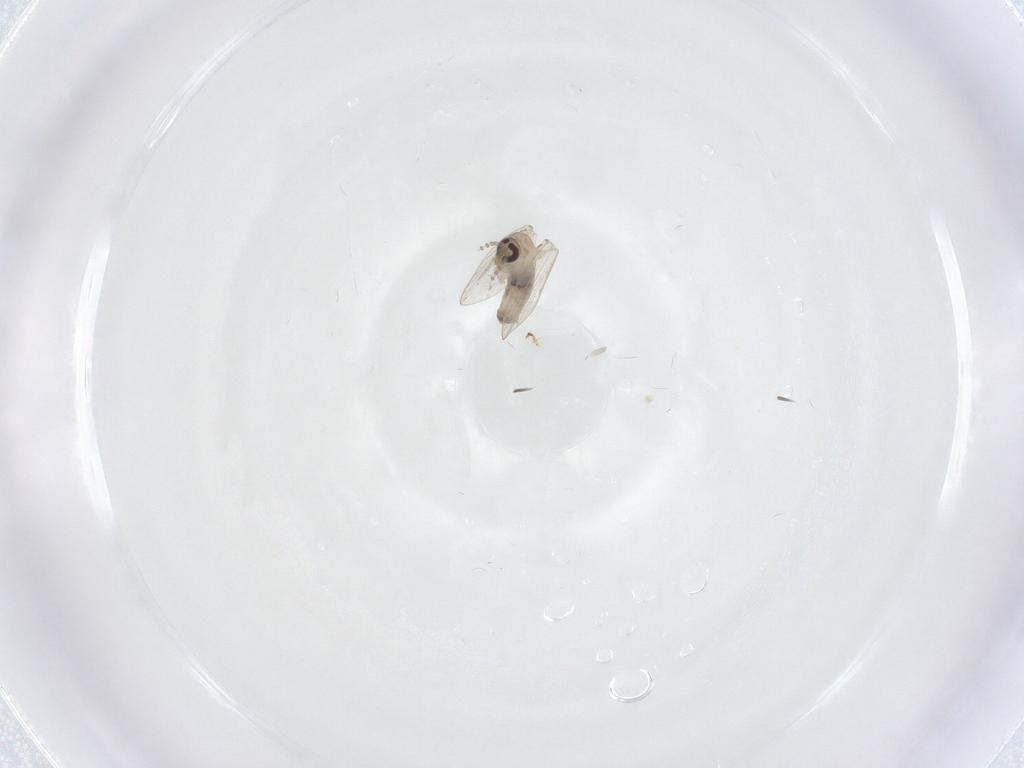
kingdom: Animalia
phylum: Arthropoda
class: Insecta
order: Diptera
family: Psychodidae
